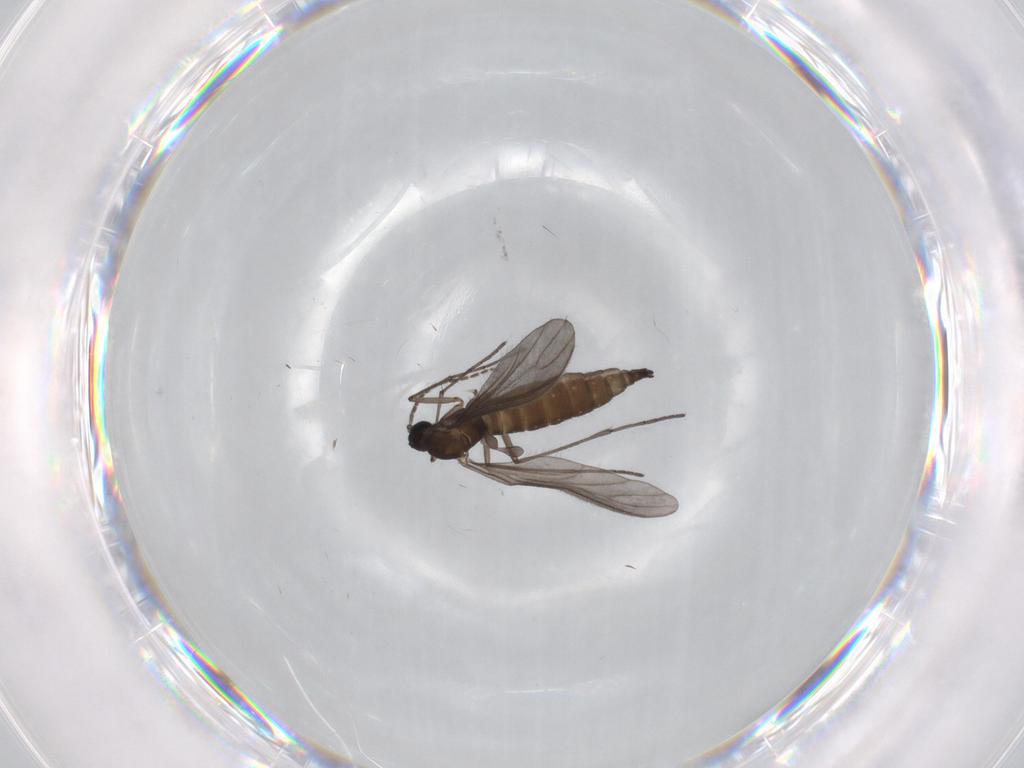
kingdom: Animalia
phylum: Arthropoda
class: Insecta
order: Diptera
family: Sciaridae
